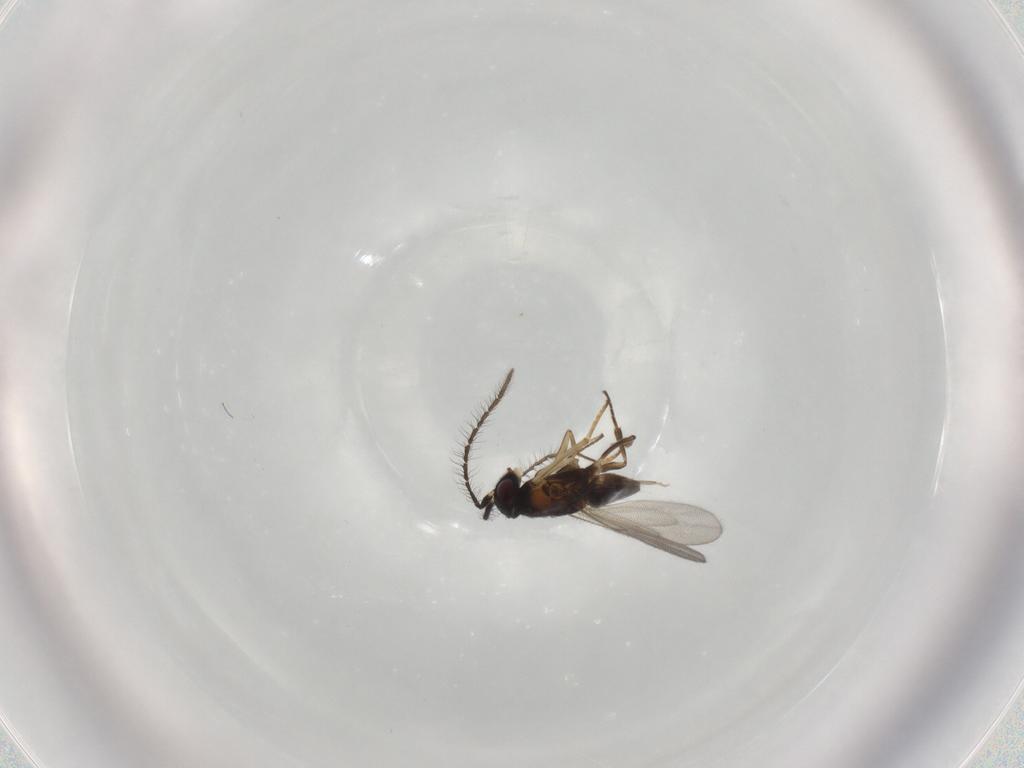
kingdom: Animalia
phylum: Arthropoda
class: Insecta
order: Hymenoptera
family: Encyrtidae
